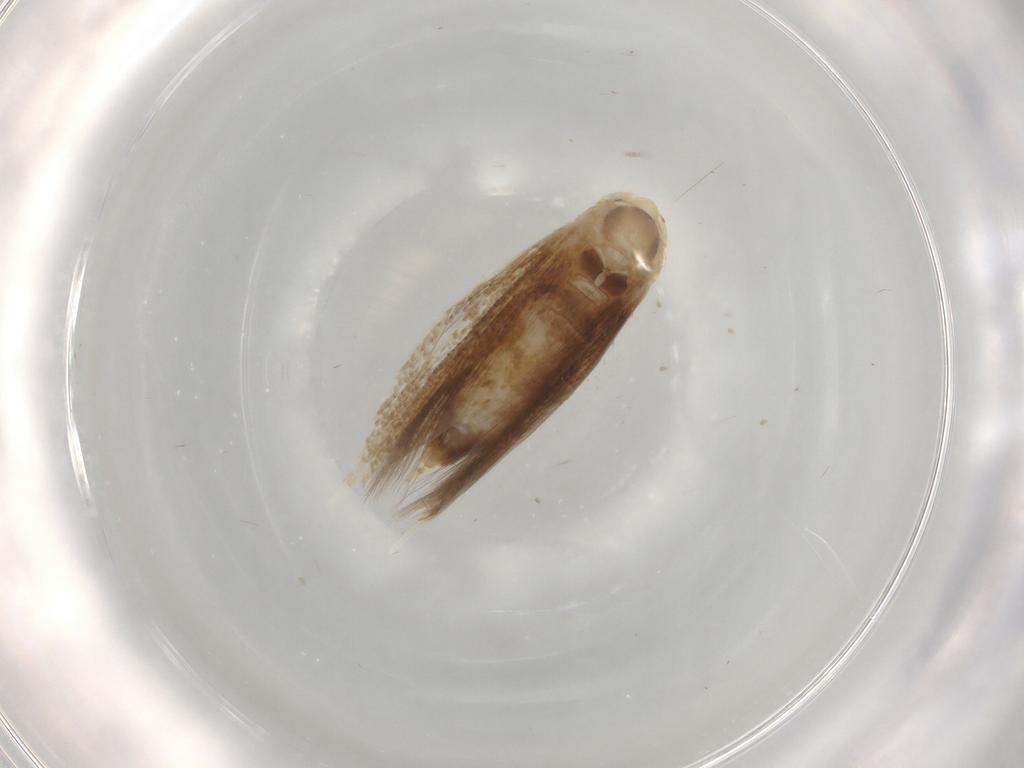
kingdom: Animalia
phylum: Arthropoda
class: Insecta
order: Lepidoptera
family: Bucculatricidae
